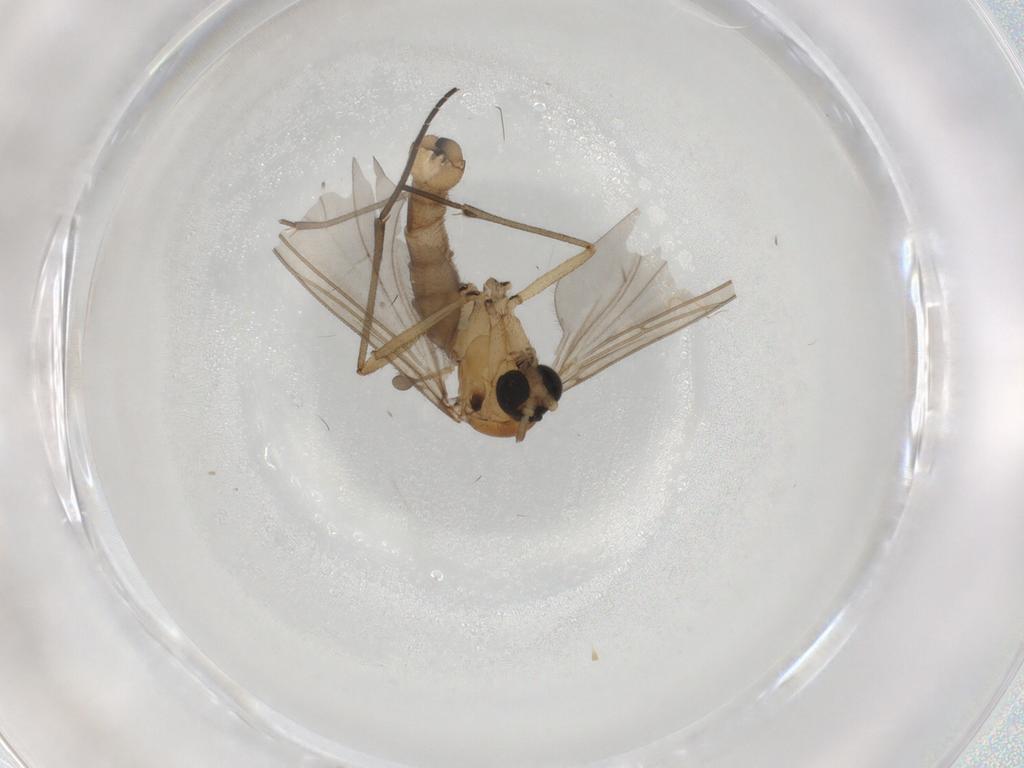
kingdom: Animalia
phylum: Arthropoda
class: Insecta
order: Diptera
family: Sciaridae
